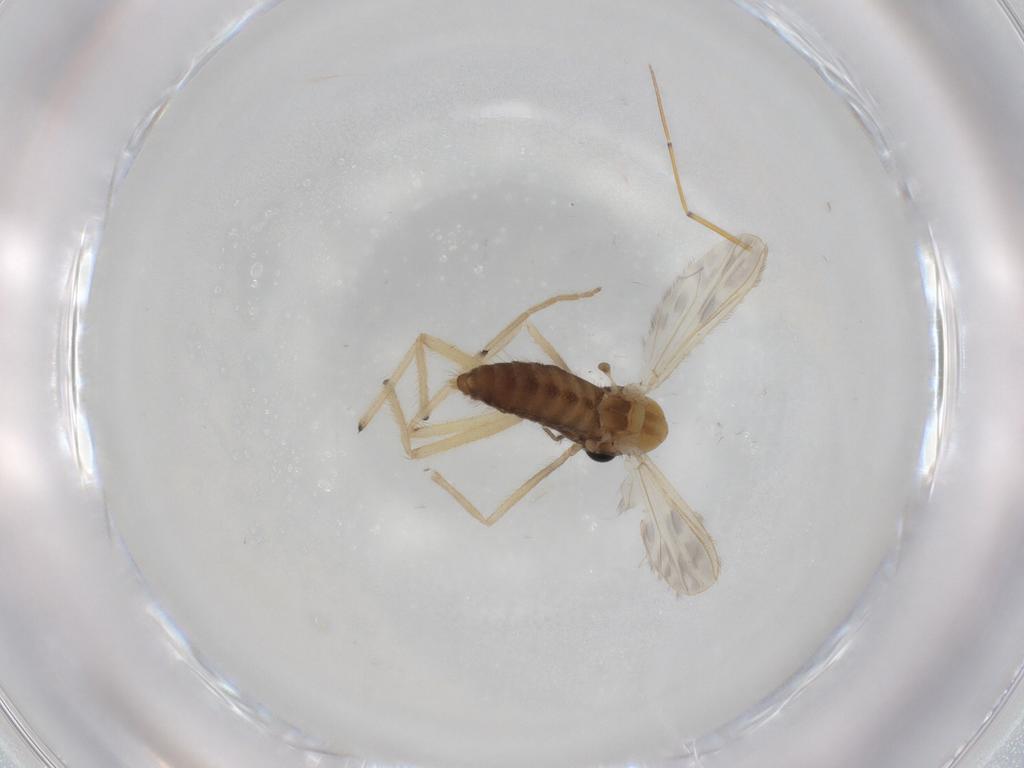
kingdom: Animalia
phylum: Arthropoda
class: Insecta
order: Diptera
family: Chironomidae
